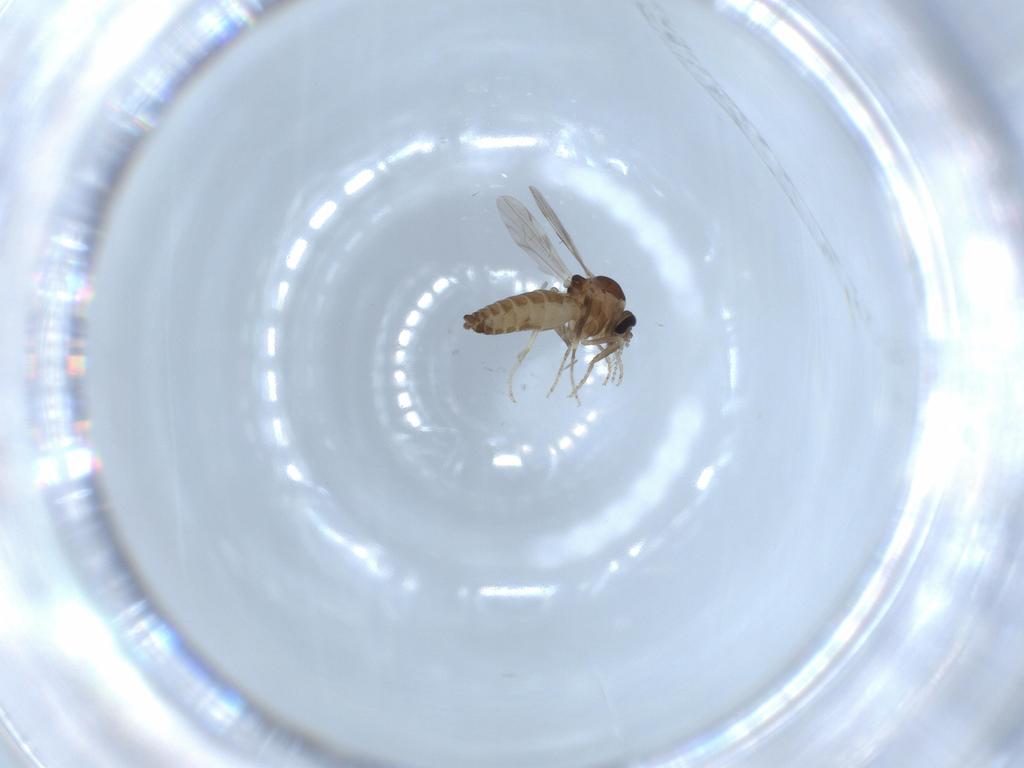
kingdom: Animalia
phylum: Arthropoda
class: Insecta
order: Diptera
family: Ceratopogonidae
